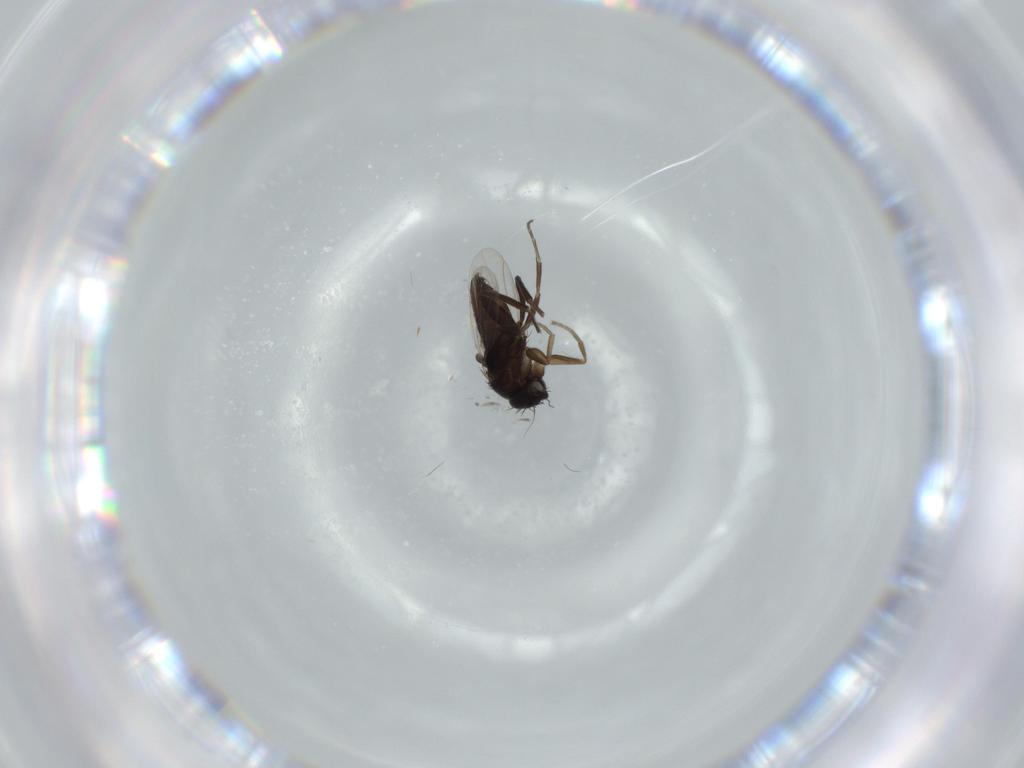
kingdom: Animalia
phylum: Arthropoda
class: Insecta
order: Diptera
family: Phoridae
